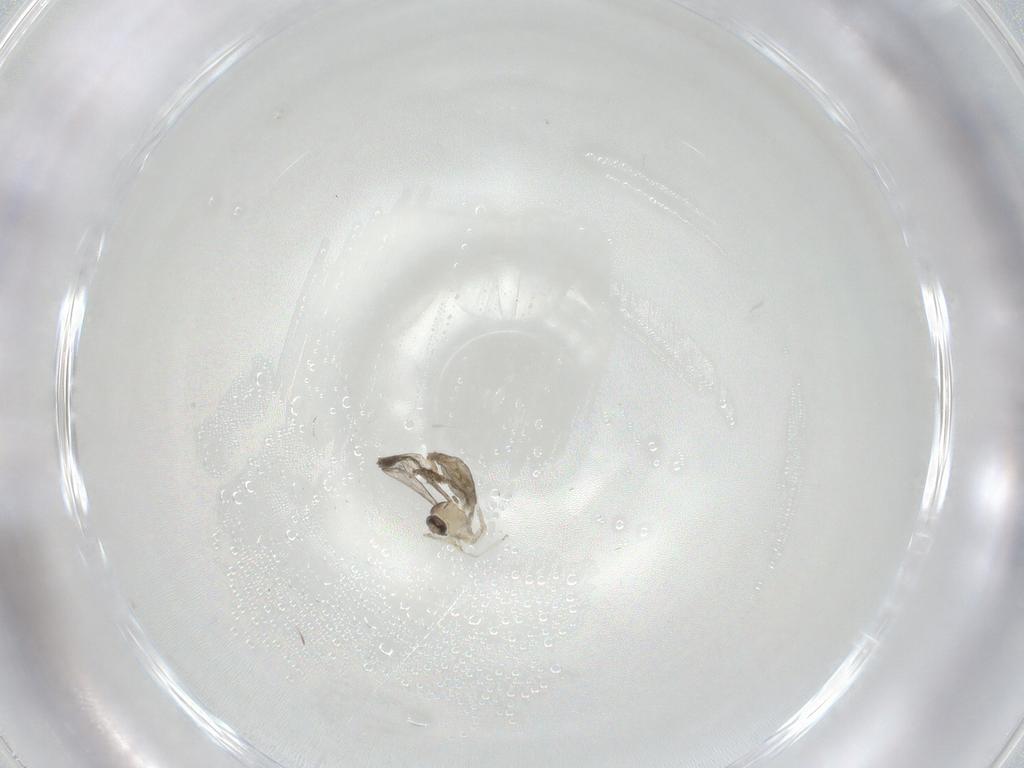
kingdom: Animalia
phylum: Arthropoda
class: Insecta
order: Diptera
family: Cecidomyiidae
